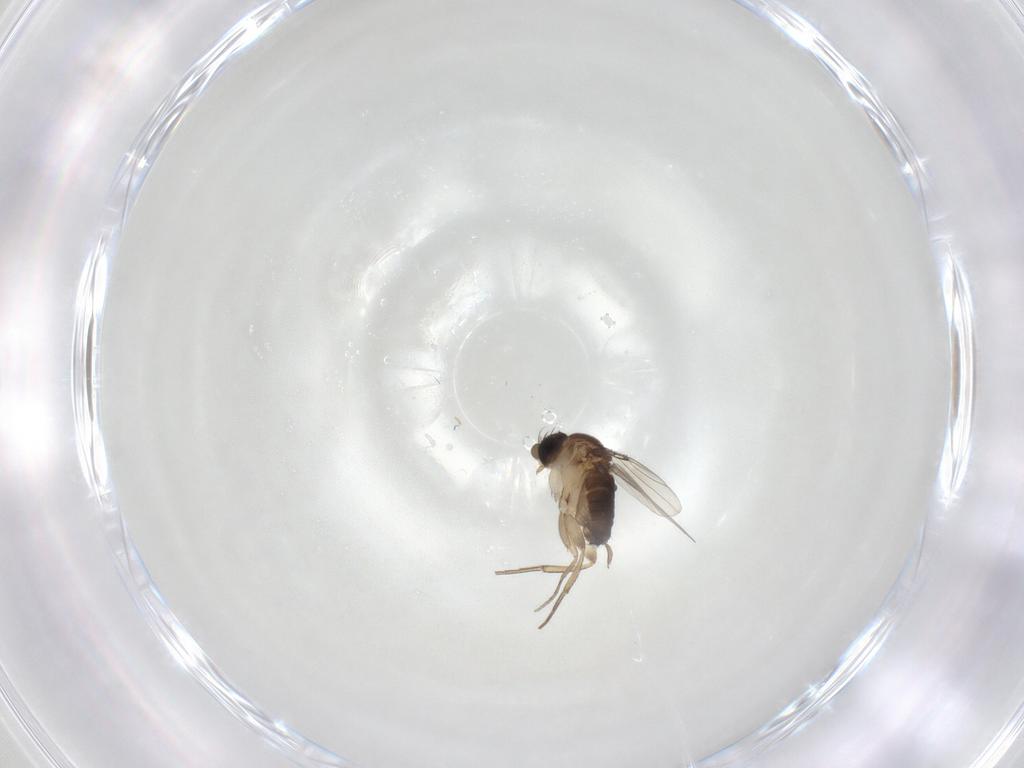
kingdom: Animalia
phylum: Arthropoda
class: Insecta
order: Diptera
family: Phoridae
